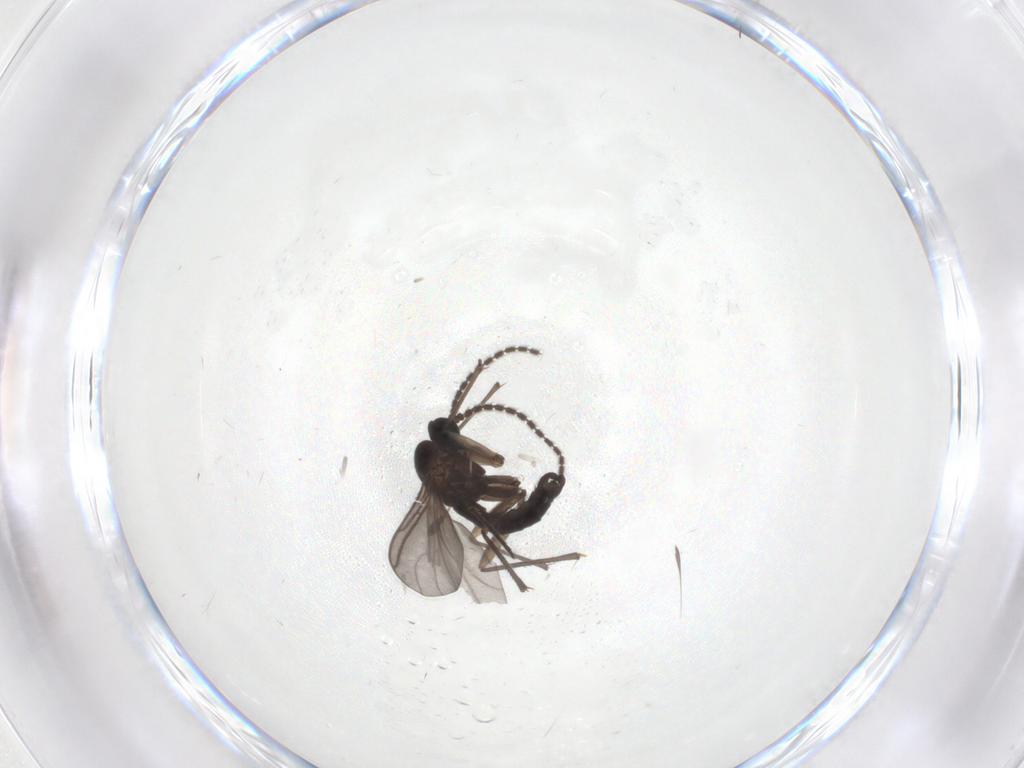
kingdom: Animalia
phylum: Arthropoda
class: Insecta
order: Diptera
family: Sciaridae
